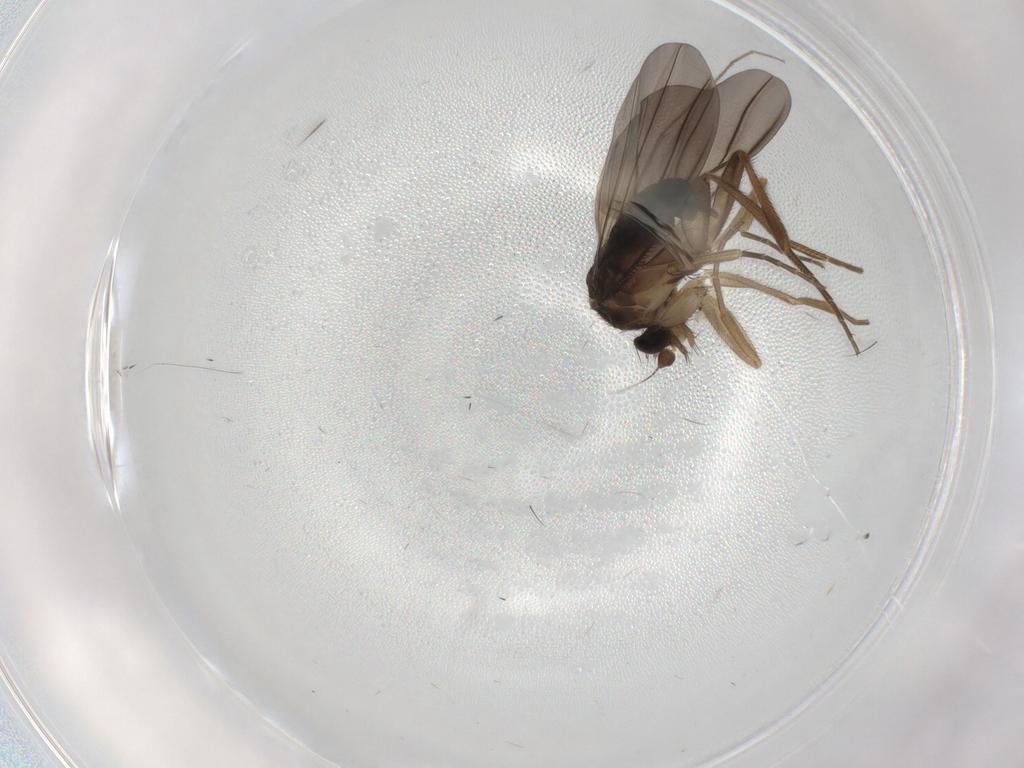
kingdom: Animalia
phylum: Arthropoda
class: Insecta
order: Diptera
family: Phoridae
